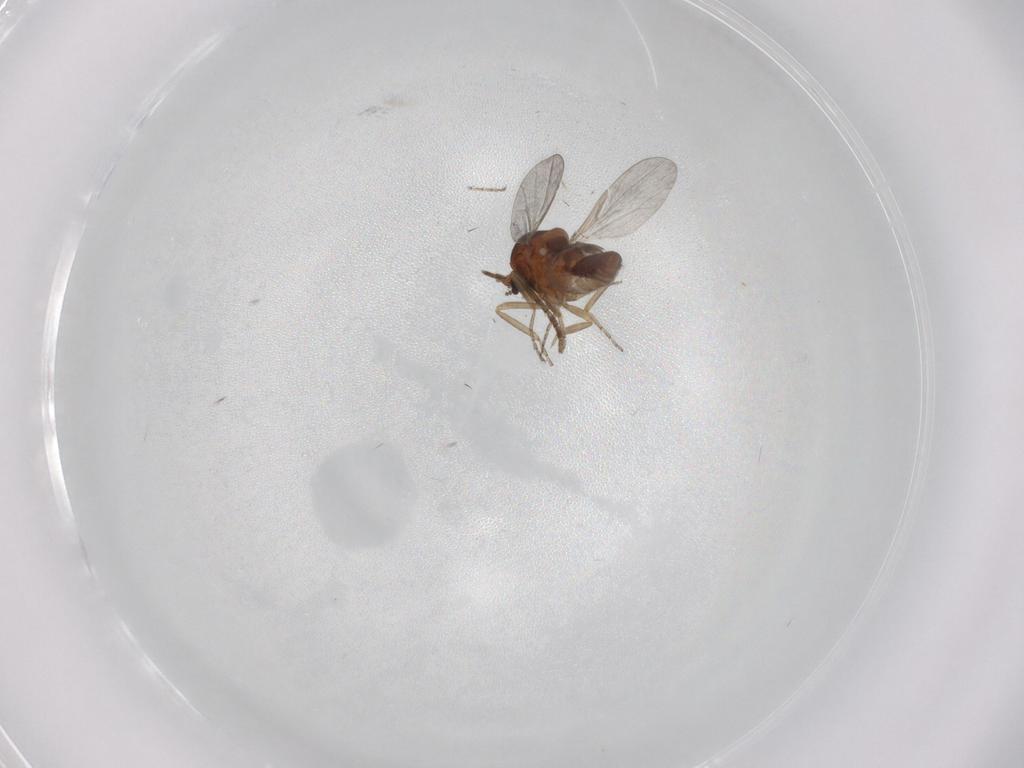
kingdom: Animalia
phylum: Arthropoda
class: Insecta
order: Diptera
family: Ceratopogonidae
